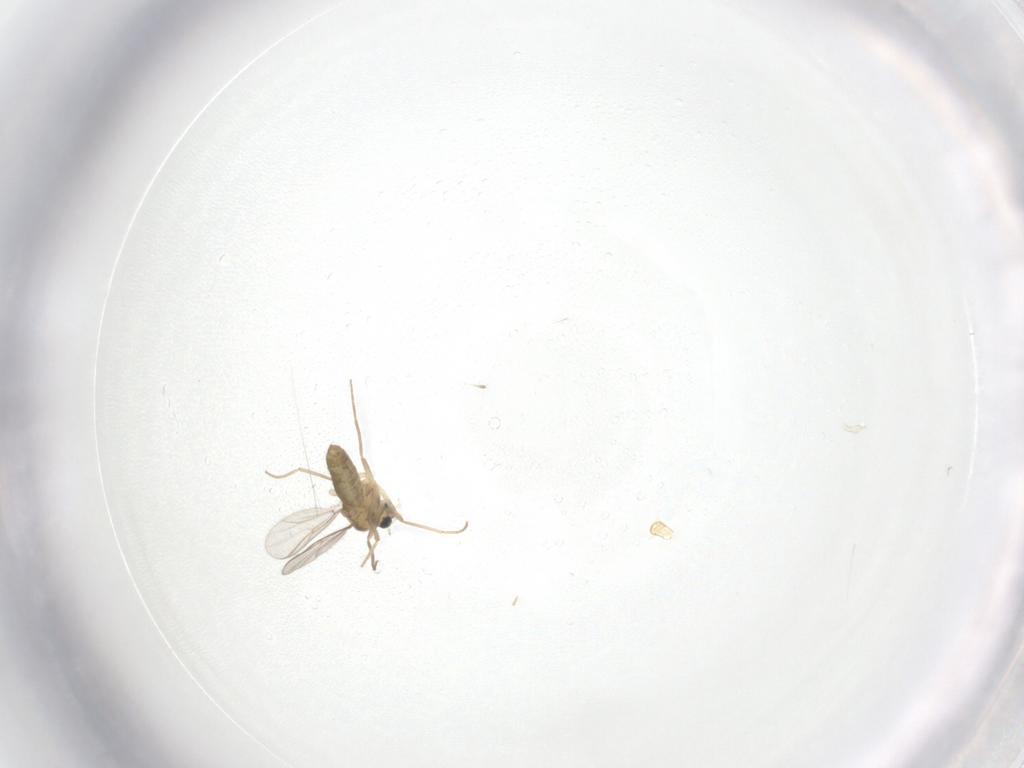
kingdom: Animalia
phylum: Arthropoda
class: Insecta
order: Diptera
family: Chironomidae
